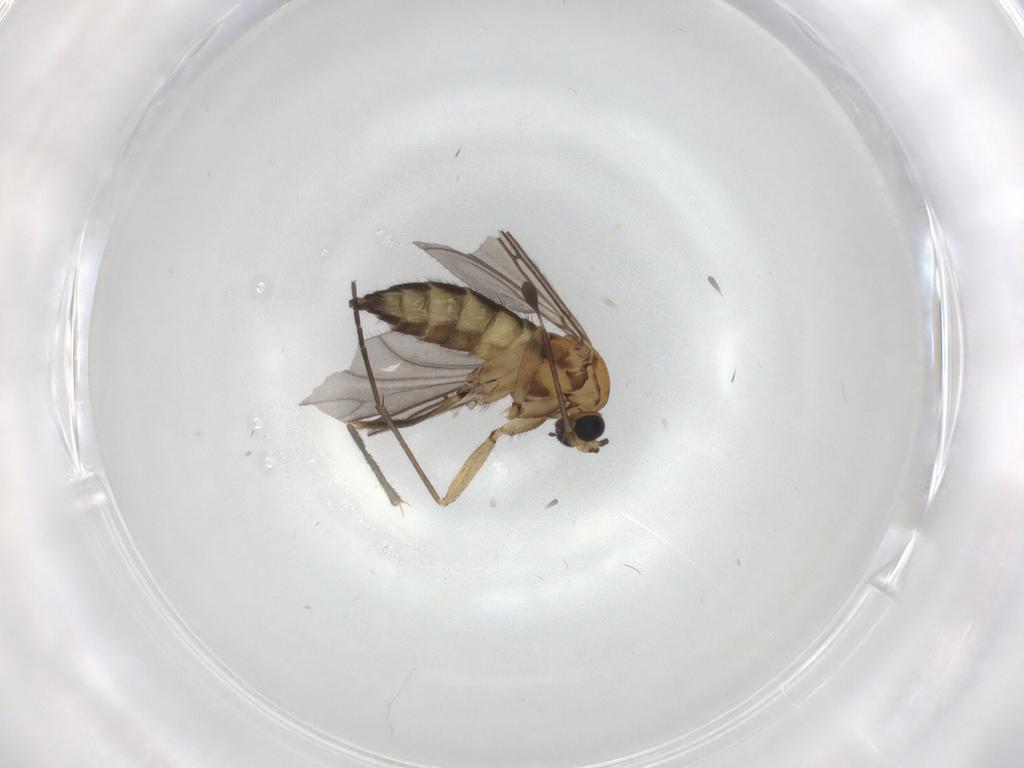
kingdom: Animalia
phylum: Arthropoda
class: Insecta
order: Diptera
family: Sciaridae
